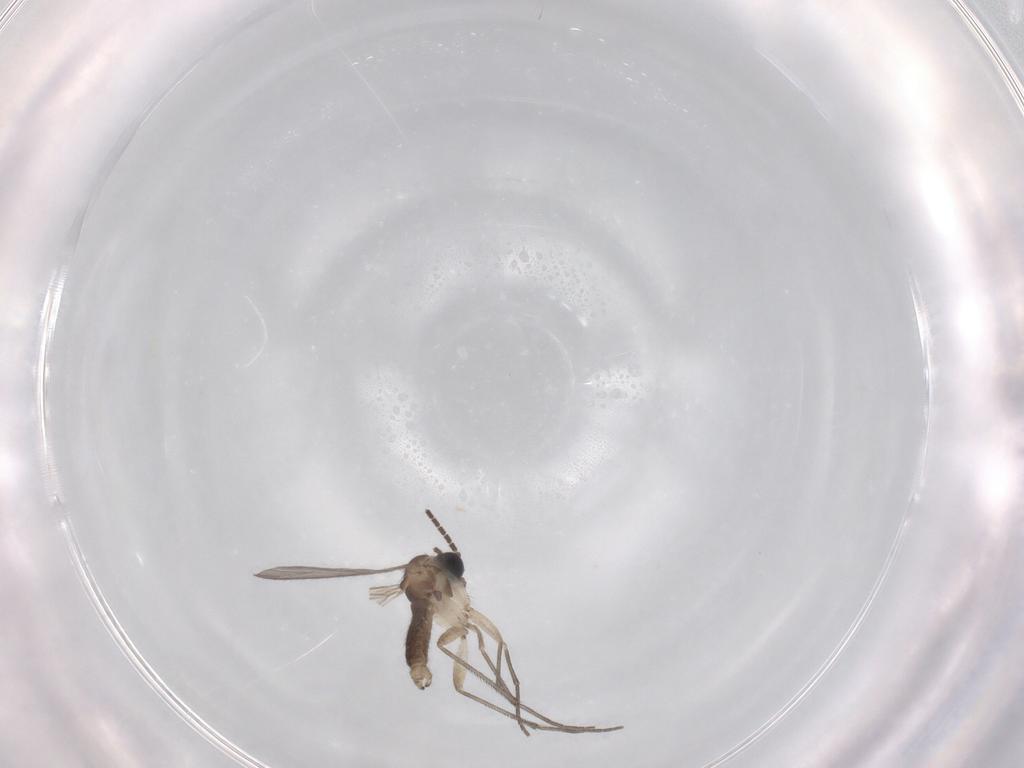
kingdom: Animalia
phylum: Arthropoda
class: Insecta
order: Diptera
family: Sciaridae
